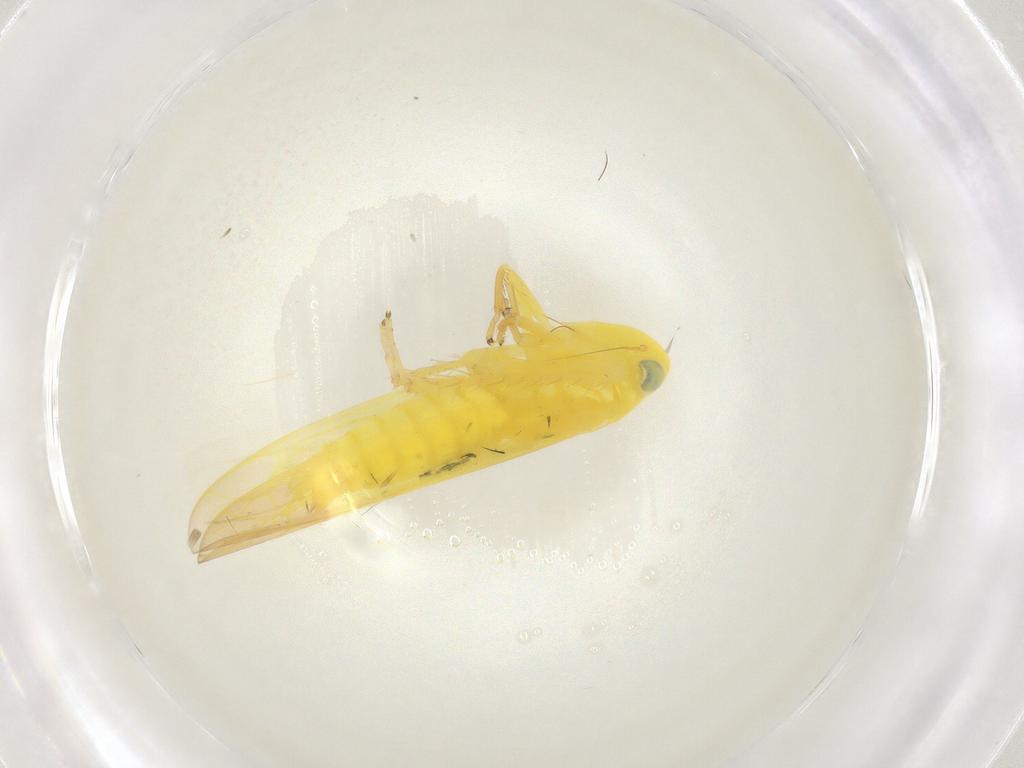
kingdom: Animalia
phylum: Arthropoda
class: Insecta
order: Hemiptera
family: Cicadellidae
